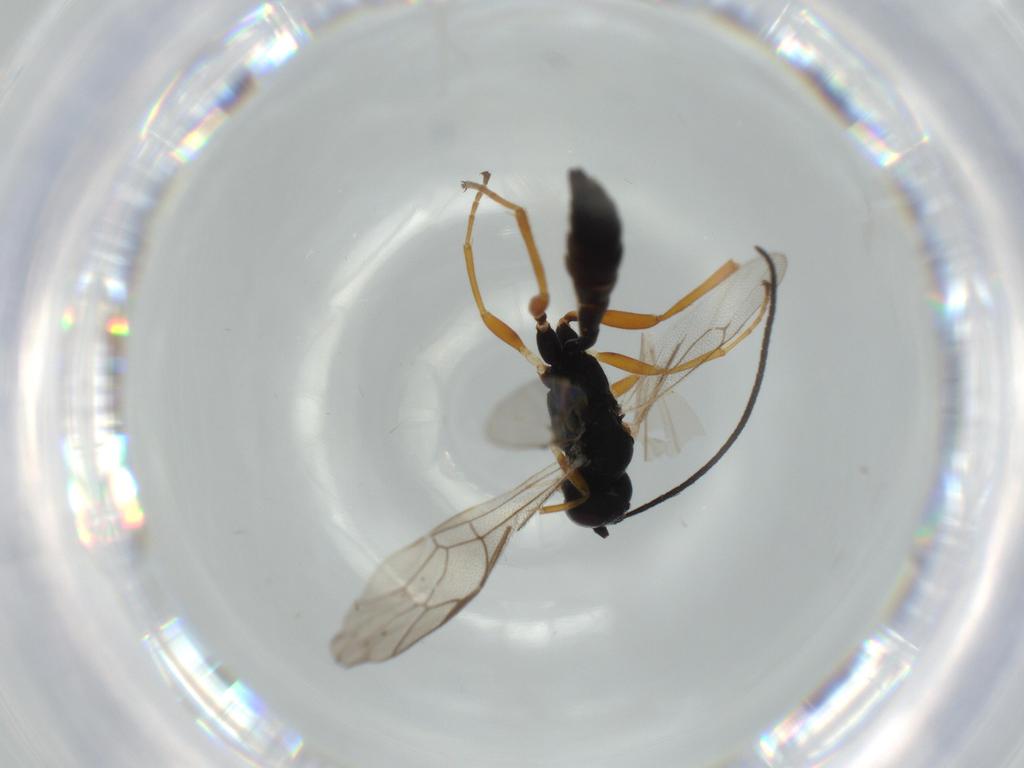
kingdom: Animalia
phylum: Arthropoda
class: Insecta
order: Hymenoptera
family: Ichneumonidae
